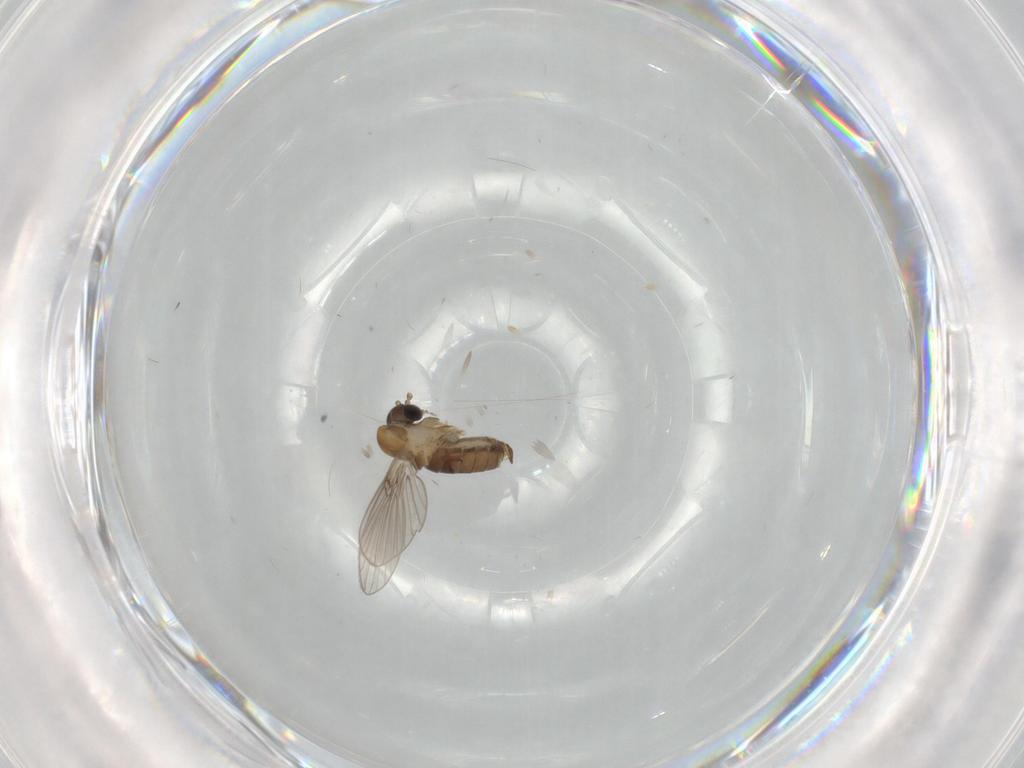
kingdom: Animalia
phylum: Arthropoda
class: Insecta
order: Diptera
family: Psychodidae
